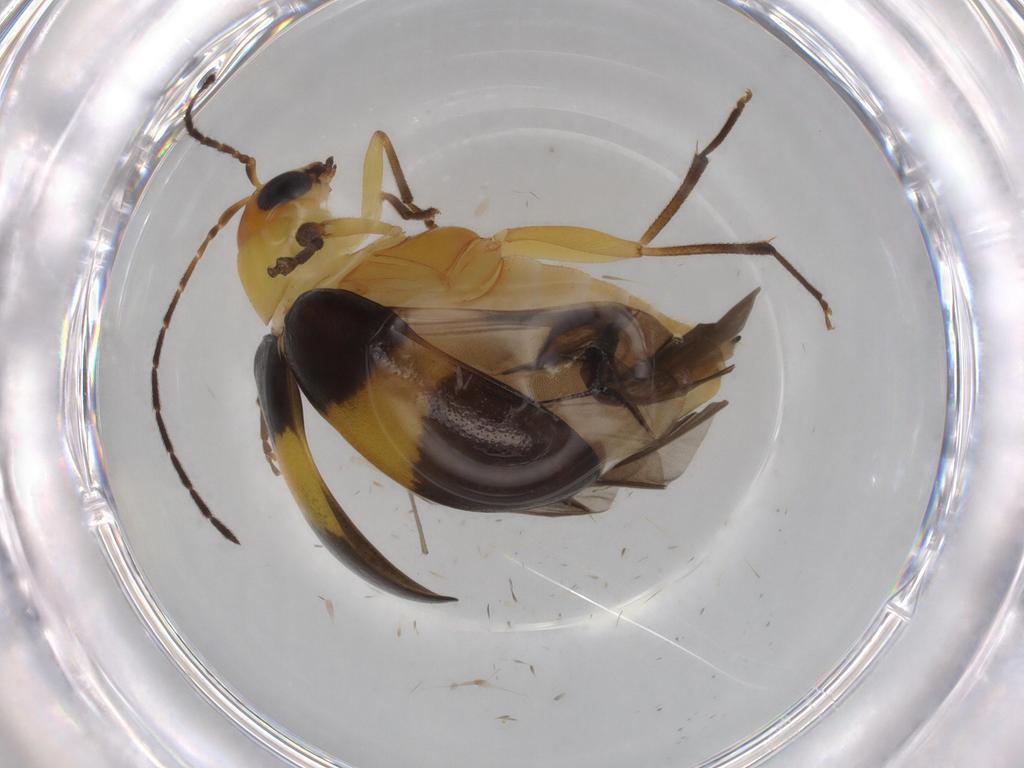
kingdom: Animalia
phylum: Arthropoda
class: Insecta
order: Coleoptera
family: Chrysomelidae
